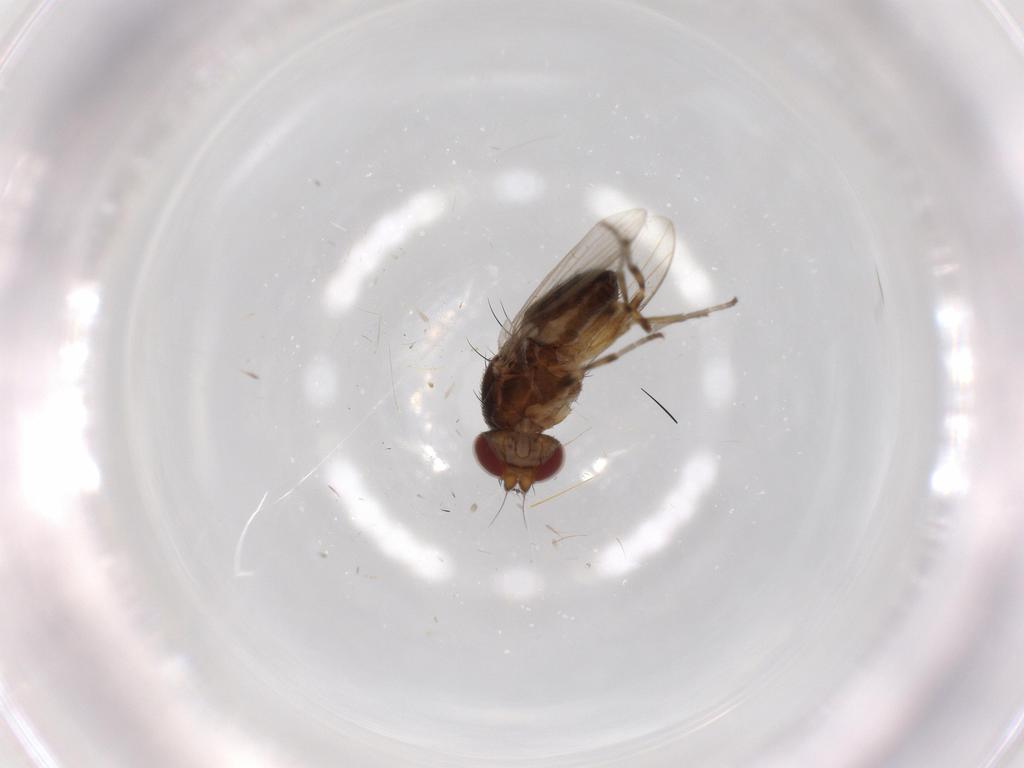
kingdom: Animalia
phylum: Arthropoda
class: Insecta
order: Diptera
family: Heleomyzidae
